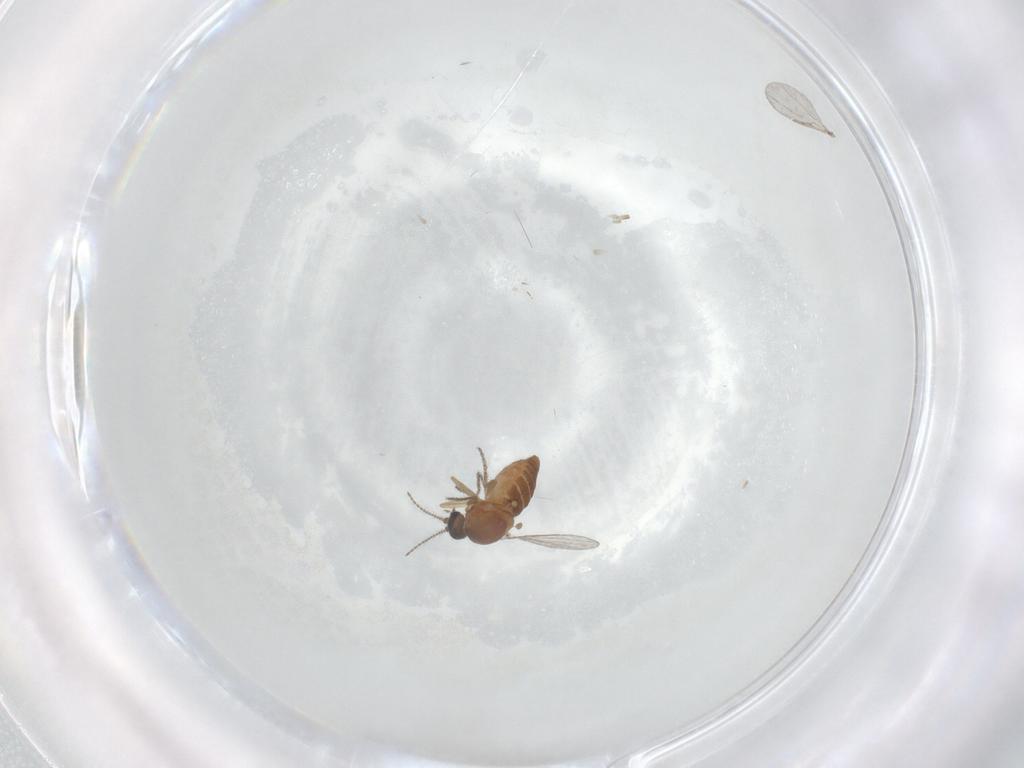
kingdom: Animalia
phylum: Arthropoda
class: Insecta
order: Diptera
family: Ceratopogonidae
